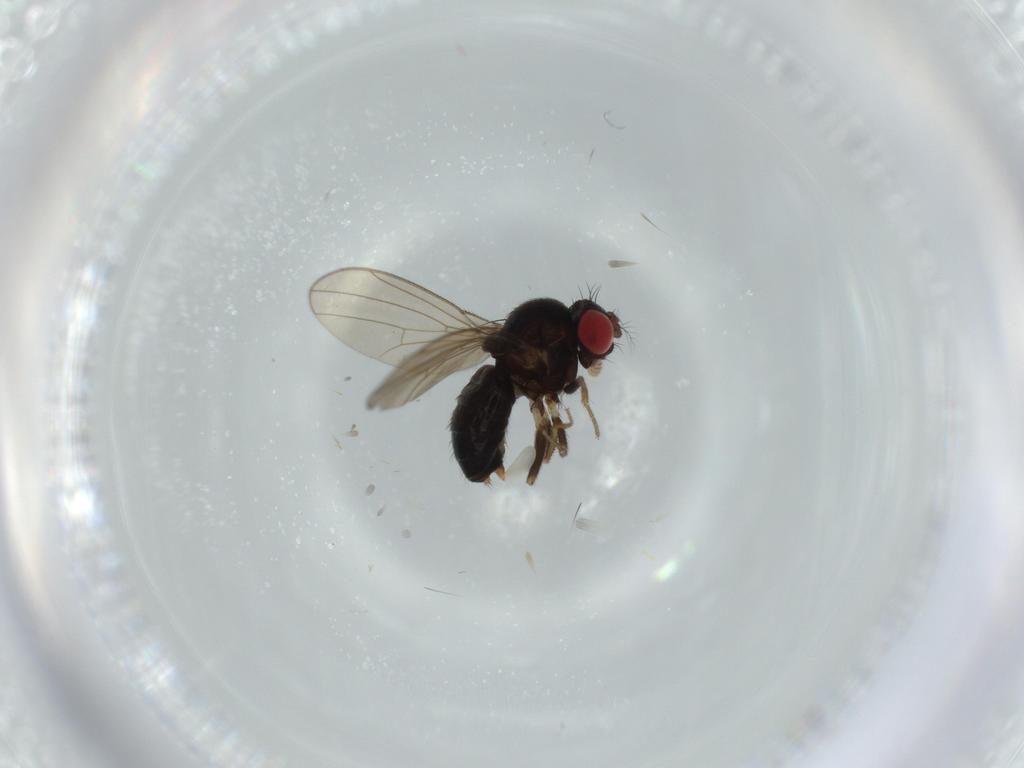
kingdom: Animalia
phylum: Arthropoda
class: Insecta
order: Diptera
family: Drosophilidae
